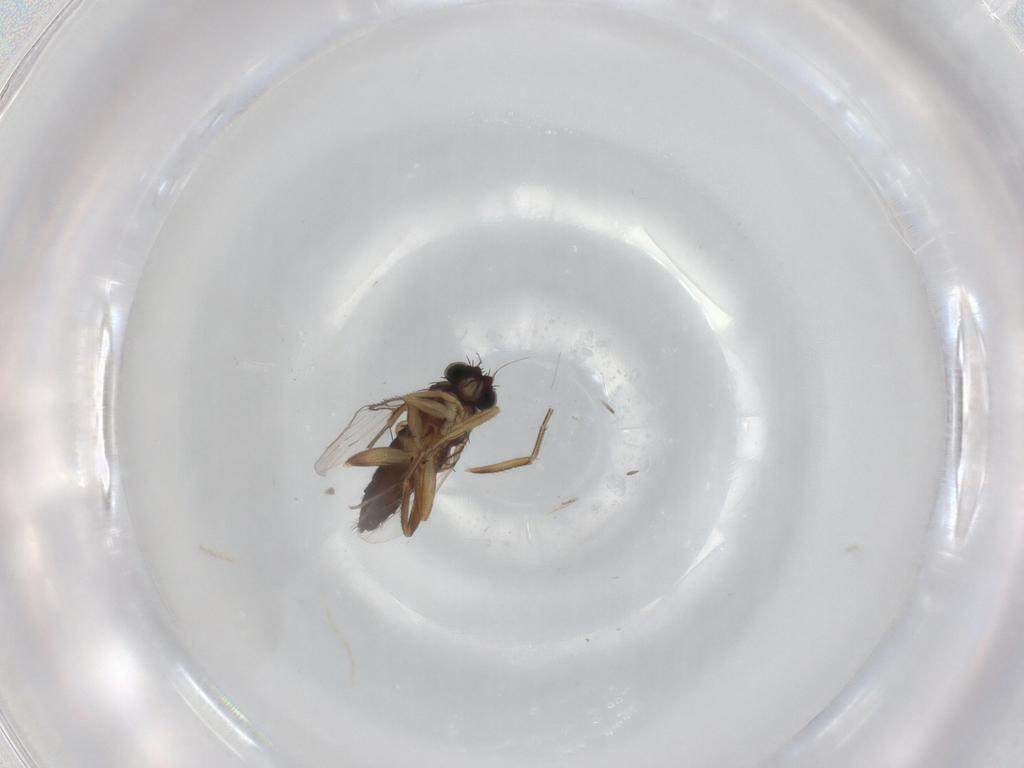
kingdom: Animalia
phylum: Arthropoda
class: Insecta
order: Diptera
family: Phoridae
